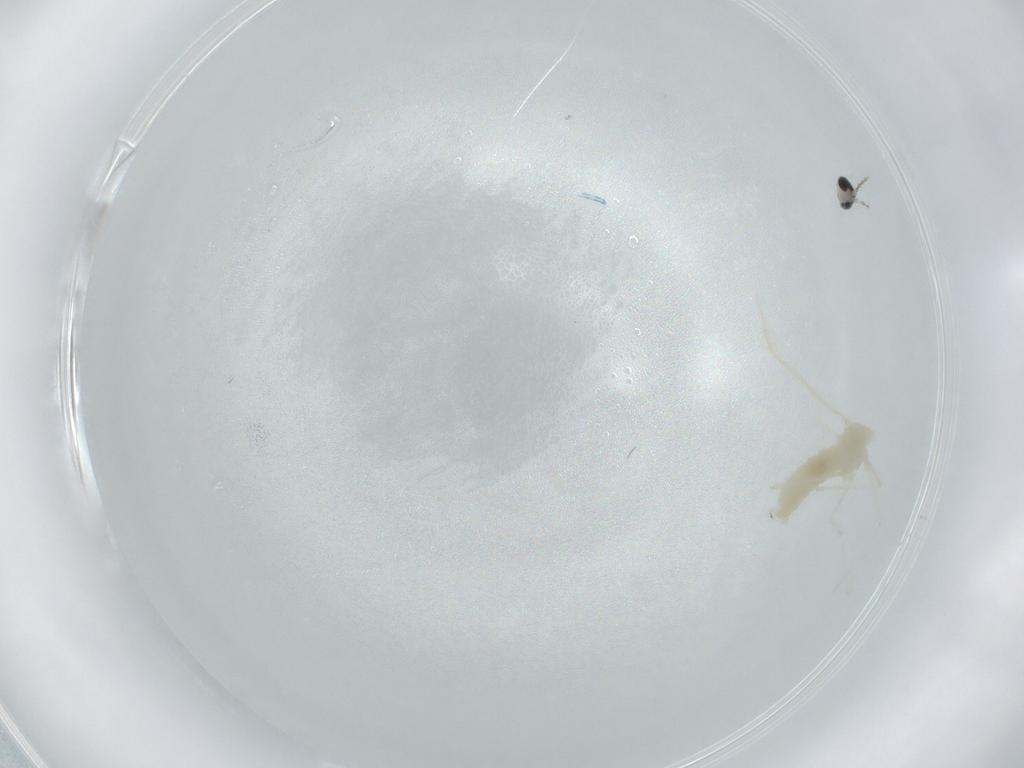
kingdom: Animalia
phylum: Arthropoda
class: Insecta
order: Diptera
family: Cecidomyiidae
